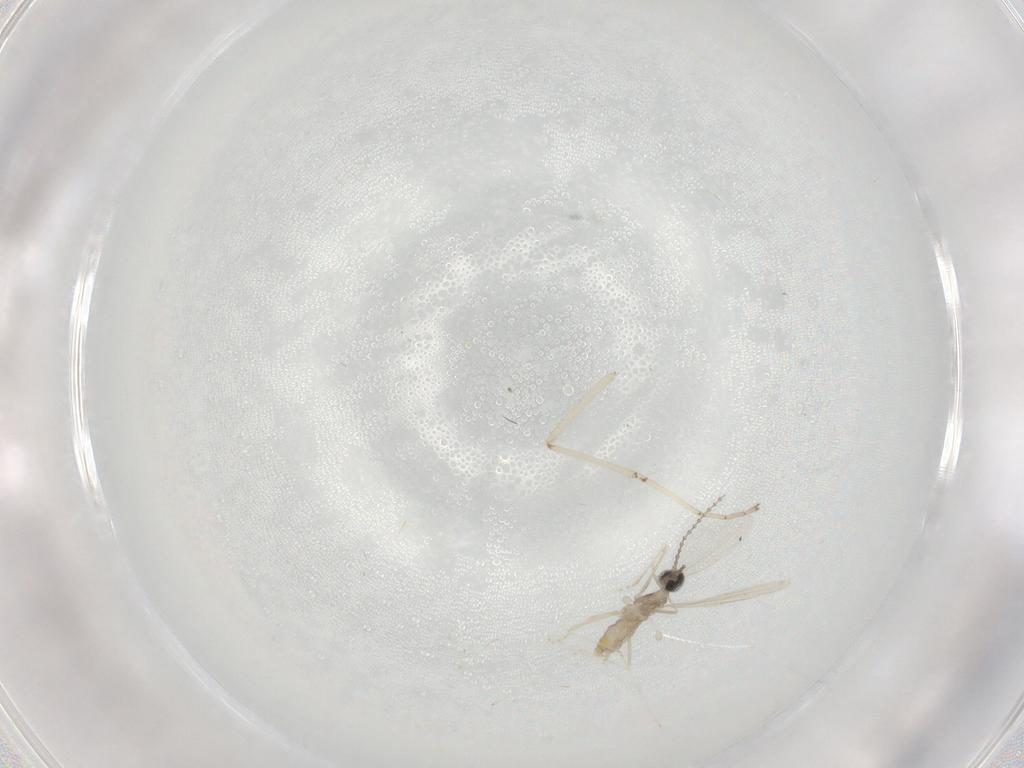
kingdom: Animalia
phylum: Arthropoda
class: Insecta
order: Diptera
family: Cecidomyiidae
